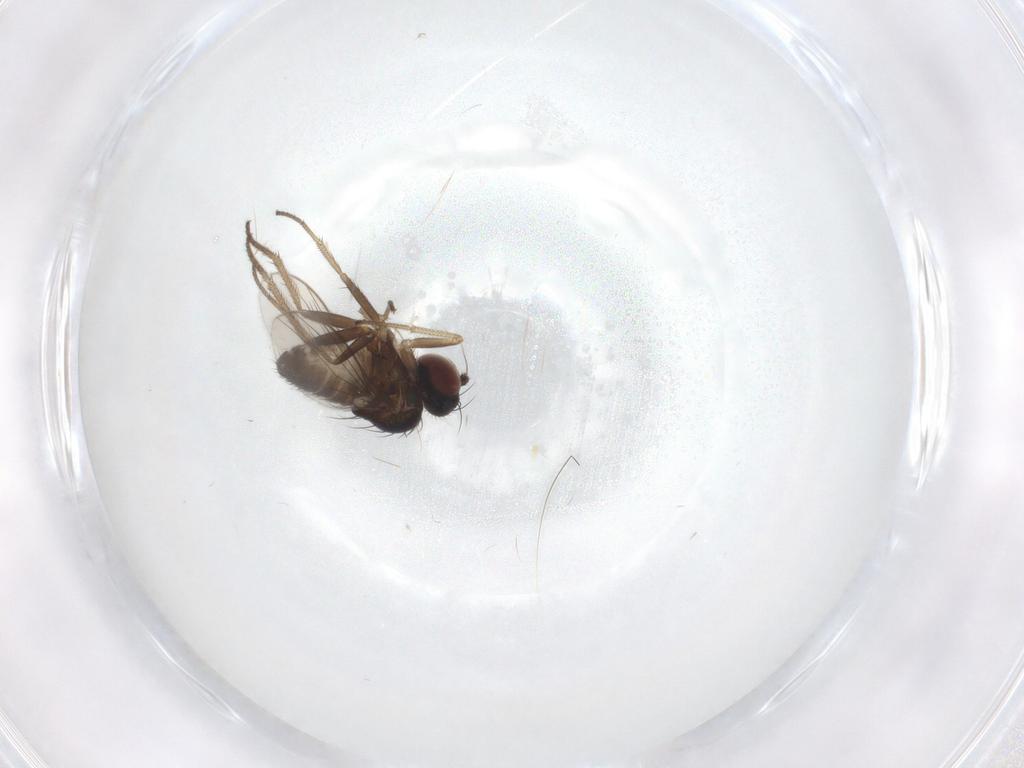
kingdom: Animalia
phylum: Arthropoda
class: Insecta
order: Diptera
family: Dolichopodidae
